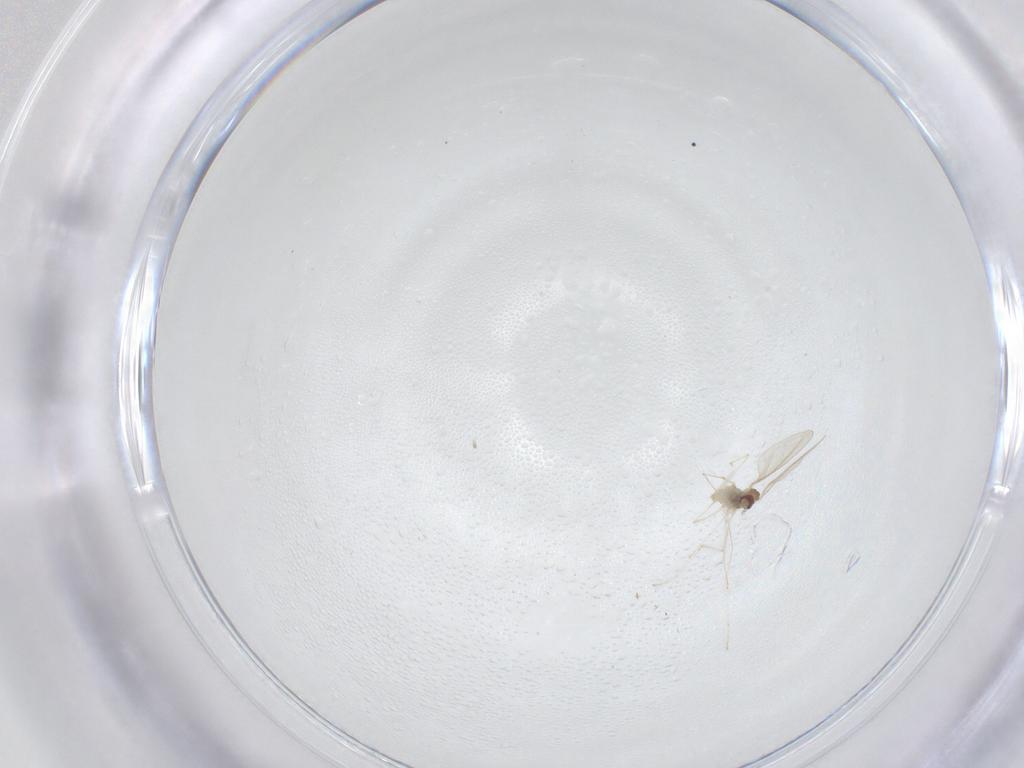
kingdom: Animalia
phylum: Arthropoda
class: Insecta
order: Diptera
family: Cecidomyiidae
